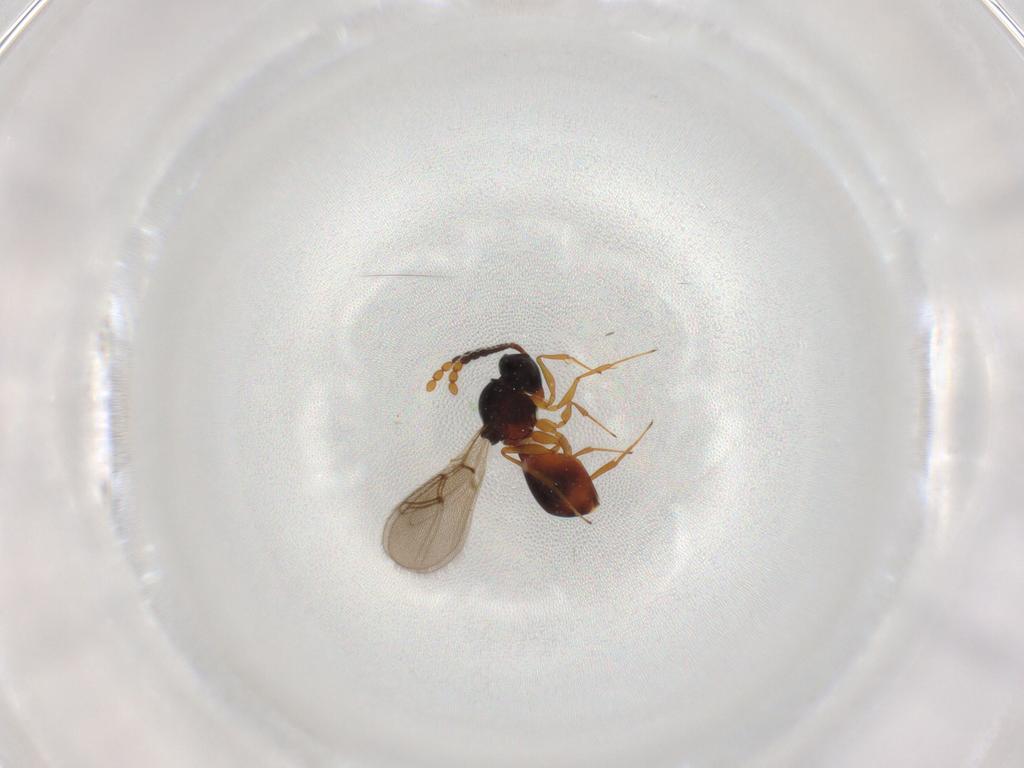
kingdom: Animalia
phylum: Arthropoda
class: Insecta
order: Hymenoptera
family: Figitidae
